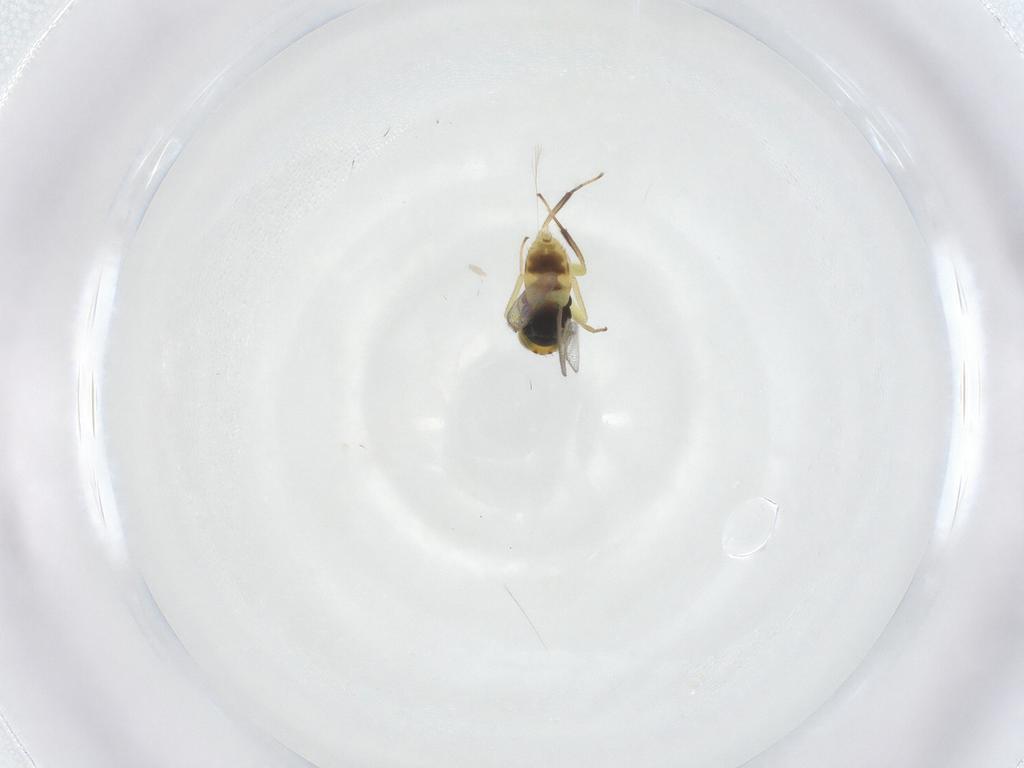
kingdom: Animalia
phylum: Arthropoda
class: Insecta
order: Hymenoptera
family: Aphelinidae
